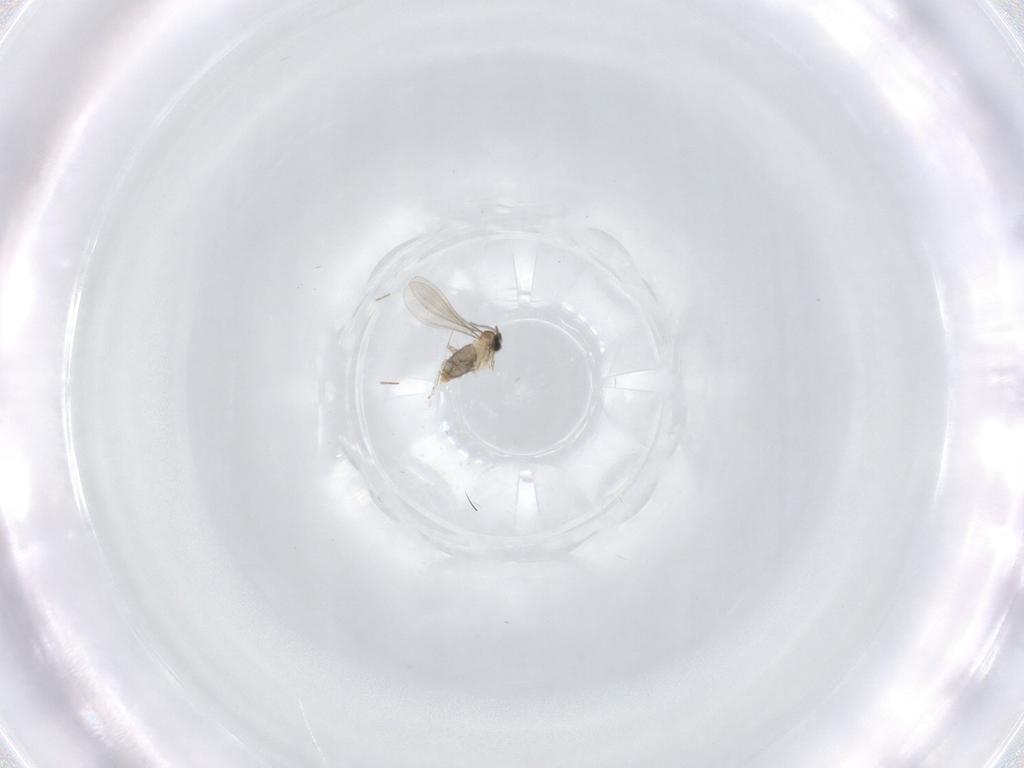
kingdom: Animalia
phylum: Arthropoda
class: Insecta
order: Diptera
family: Cecidomyiidae
